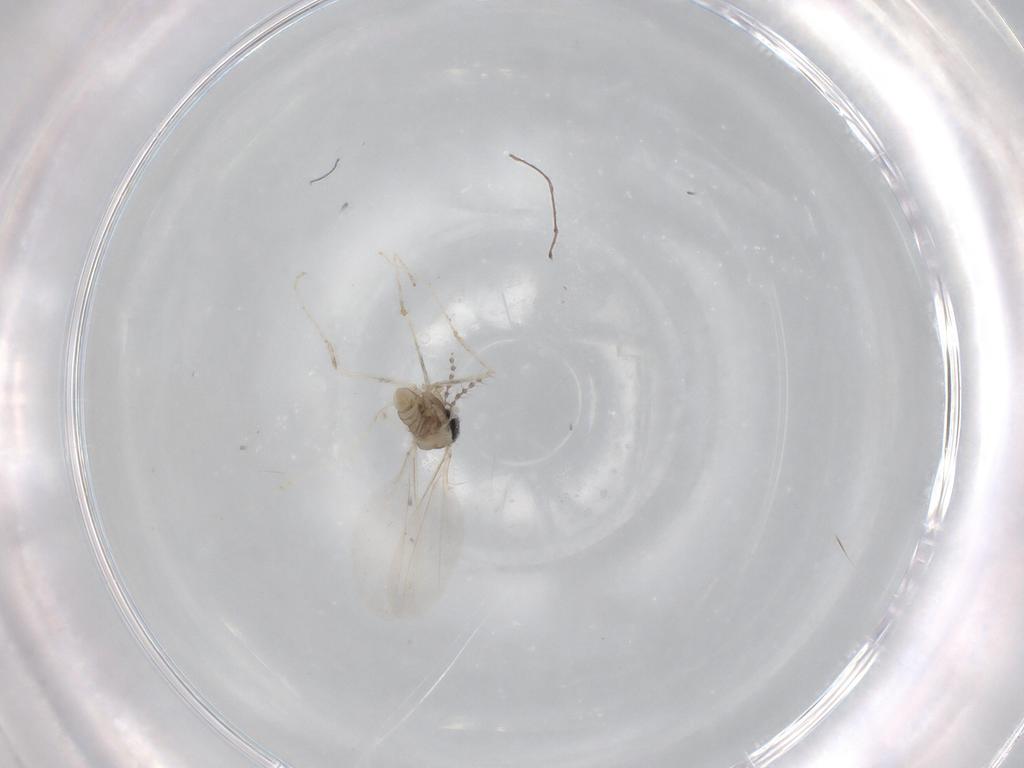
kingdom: Animalia
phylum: Arthropoda
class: Insecta
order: Diptera
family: Cecidomyiidae
